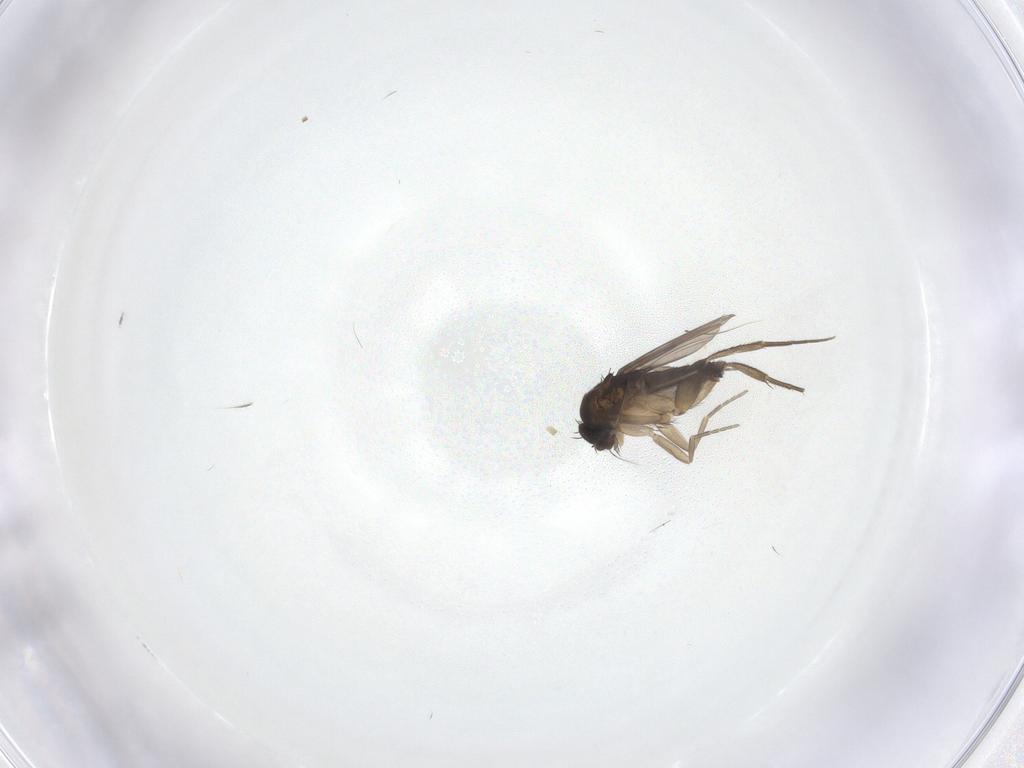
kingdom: Animalia
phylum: Arthropoda
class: Insecta
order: Diptera
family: Phoridae
